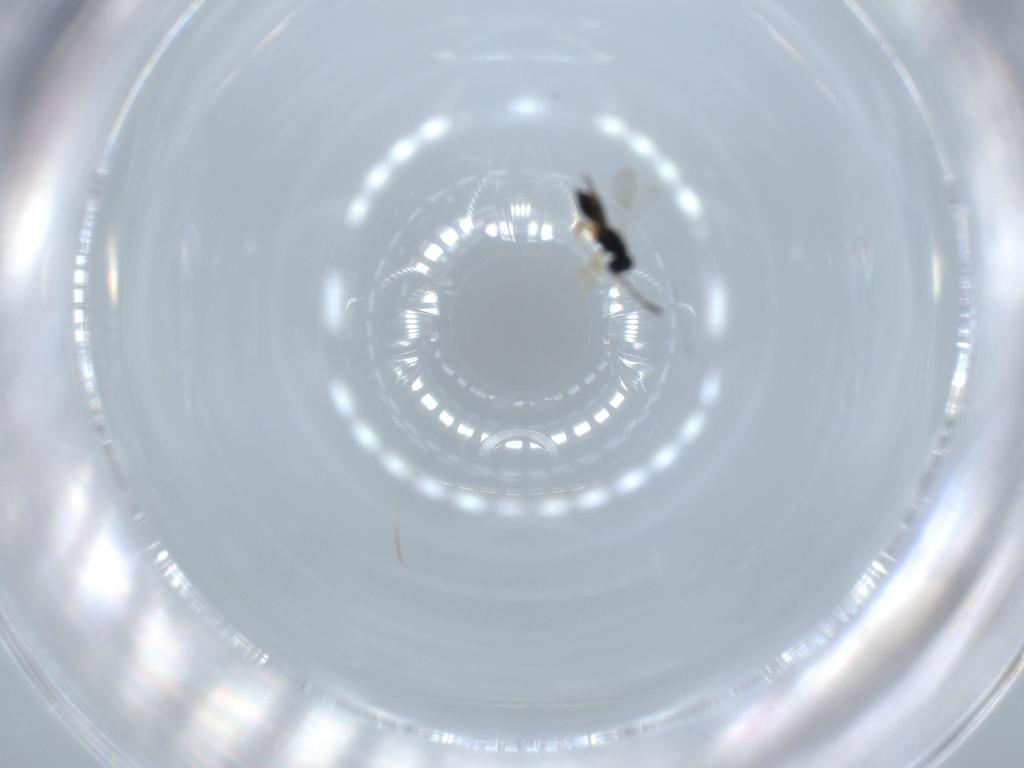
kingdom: Animalia
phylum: Arthropoda
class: Insecta
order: Hymenoptera
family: Scelionidae
